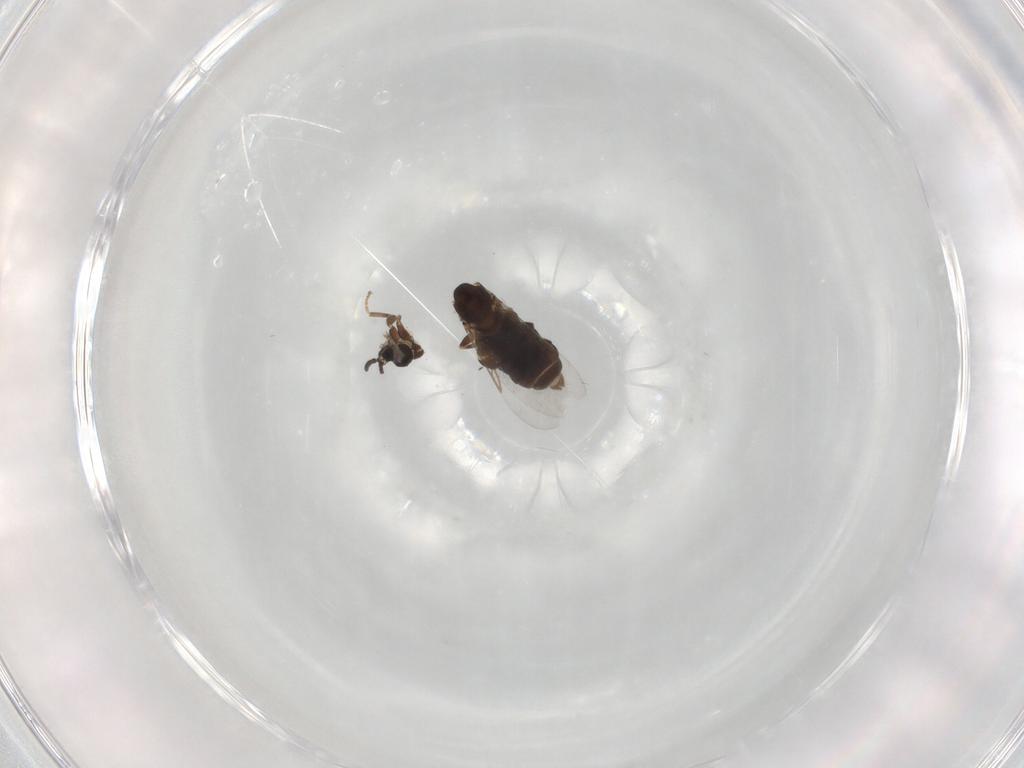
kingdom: Animalia
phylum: Arthropoda
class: Insecta
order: Diptera
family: Scatopsidae
